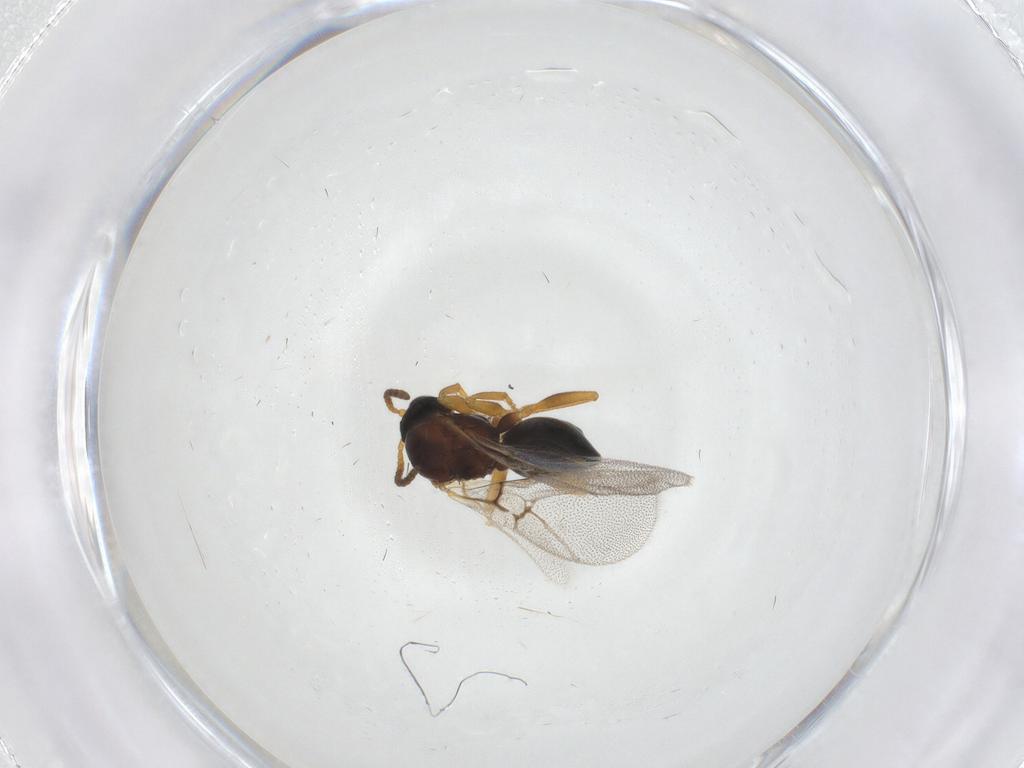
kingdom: Animalia
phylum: Arthropoda
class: Insecta
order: Hymenoptera
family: Cynipidae
